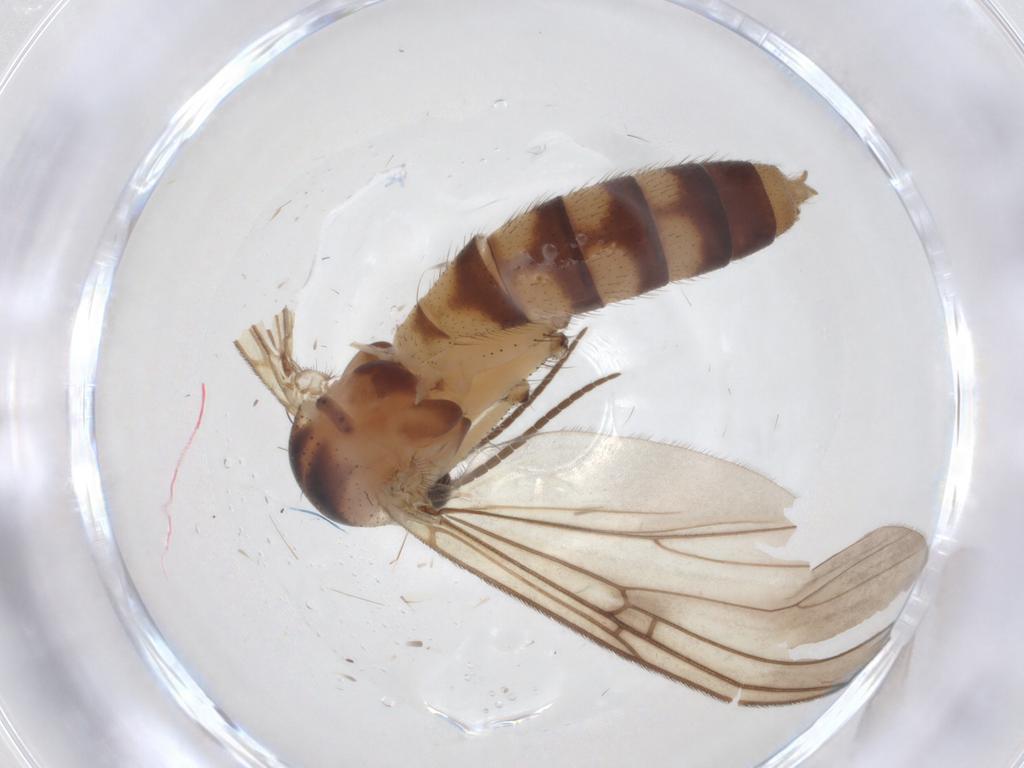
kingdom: Animalia
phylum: Arthropoda
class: Insecta
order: Diptera
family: Mycetophilidae
